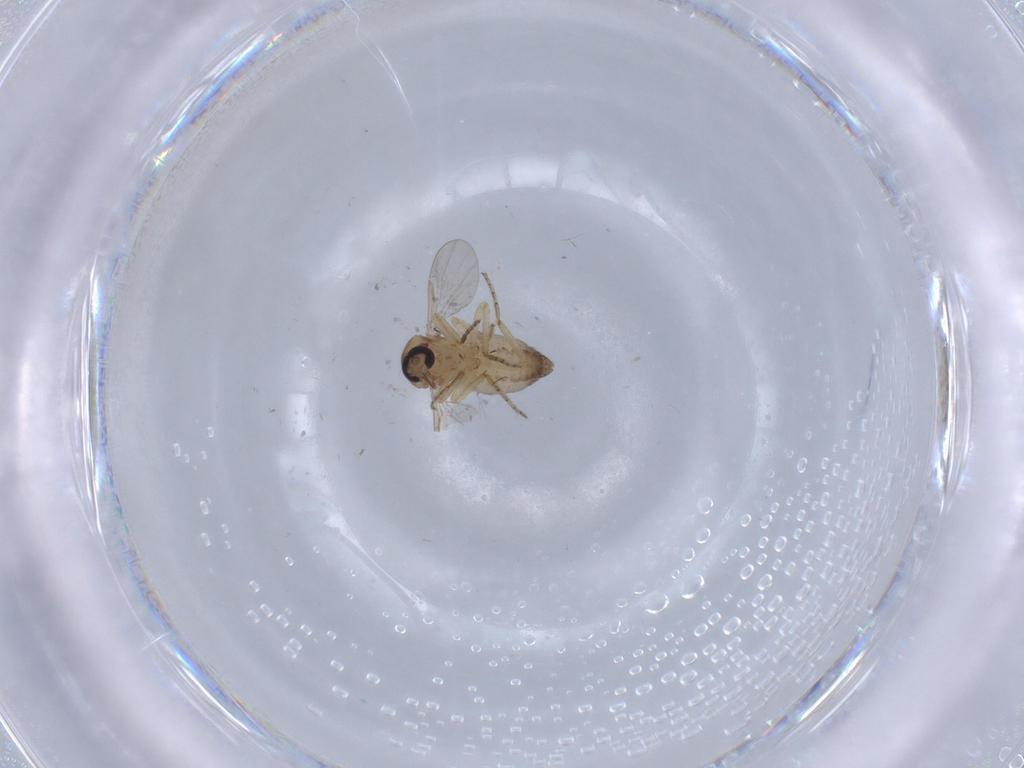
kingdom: Animalia
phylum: Arthropoda
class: Insecta
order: Diptera
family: Ceratopogonidae
